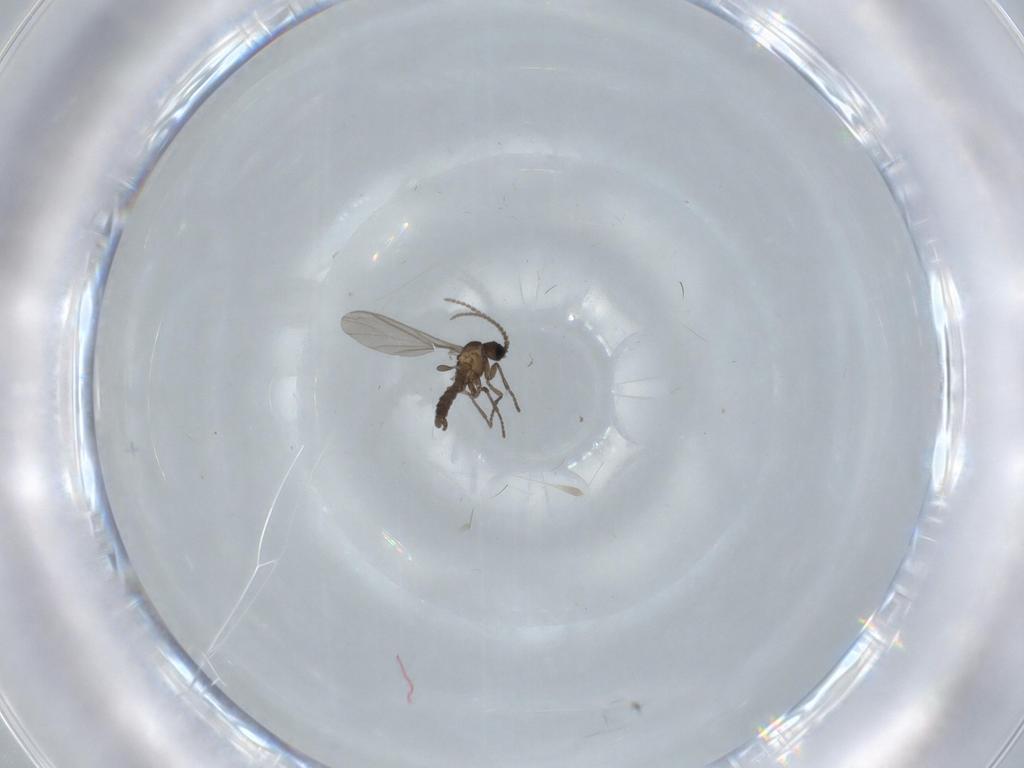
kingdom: Animalia
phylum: Arthropoda
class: Insecta
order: Diptera
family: Ceratopogonidae
